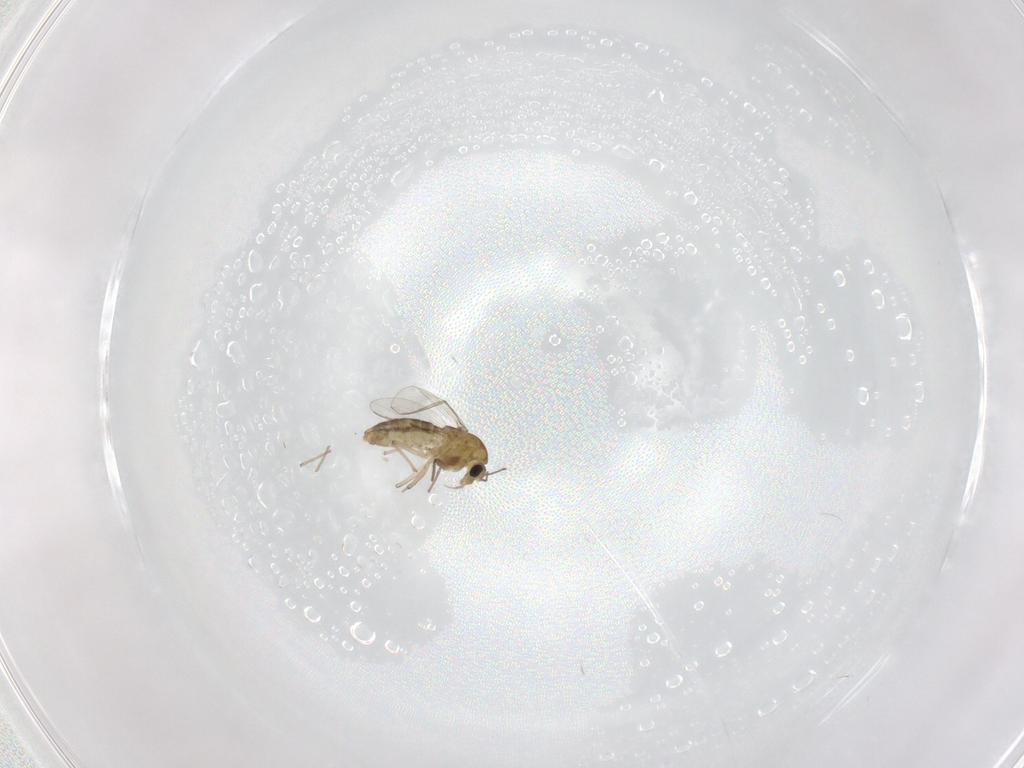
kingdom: Animalia
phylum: Arthropoda
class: Insecta
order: Diptera
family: Chironomidae
